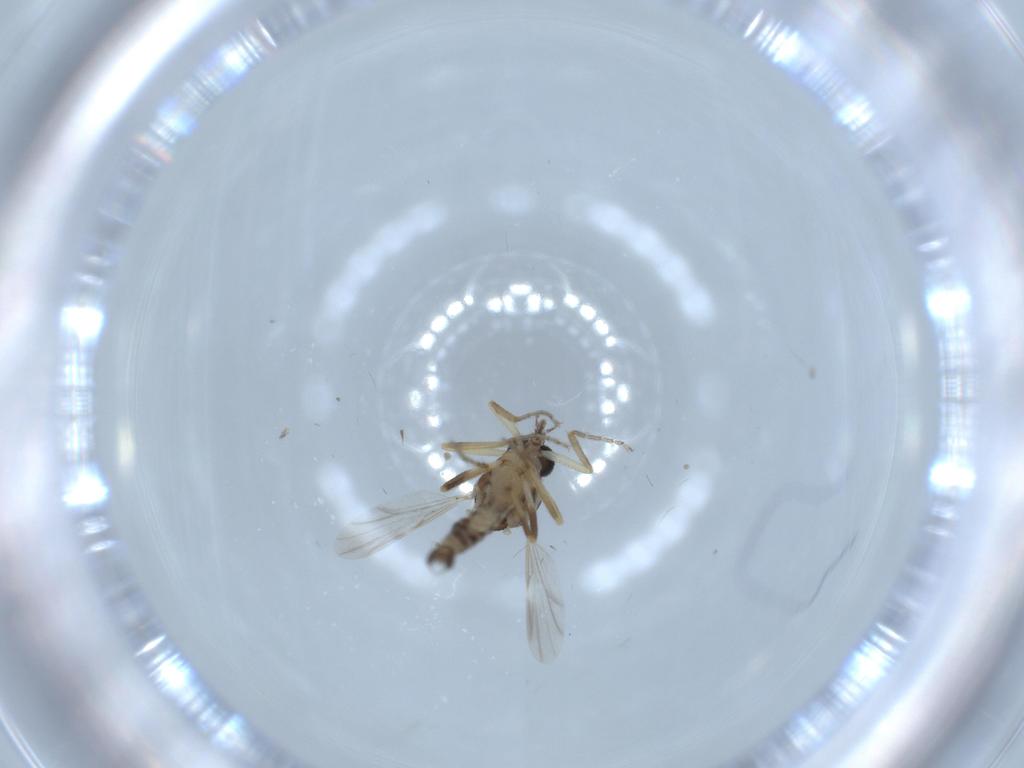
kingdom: Animalia
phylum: Arthropoda
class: Insecta
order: Diptera
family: Ceratopogonidae
